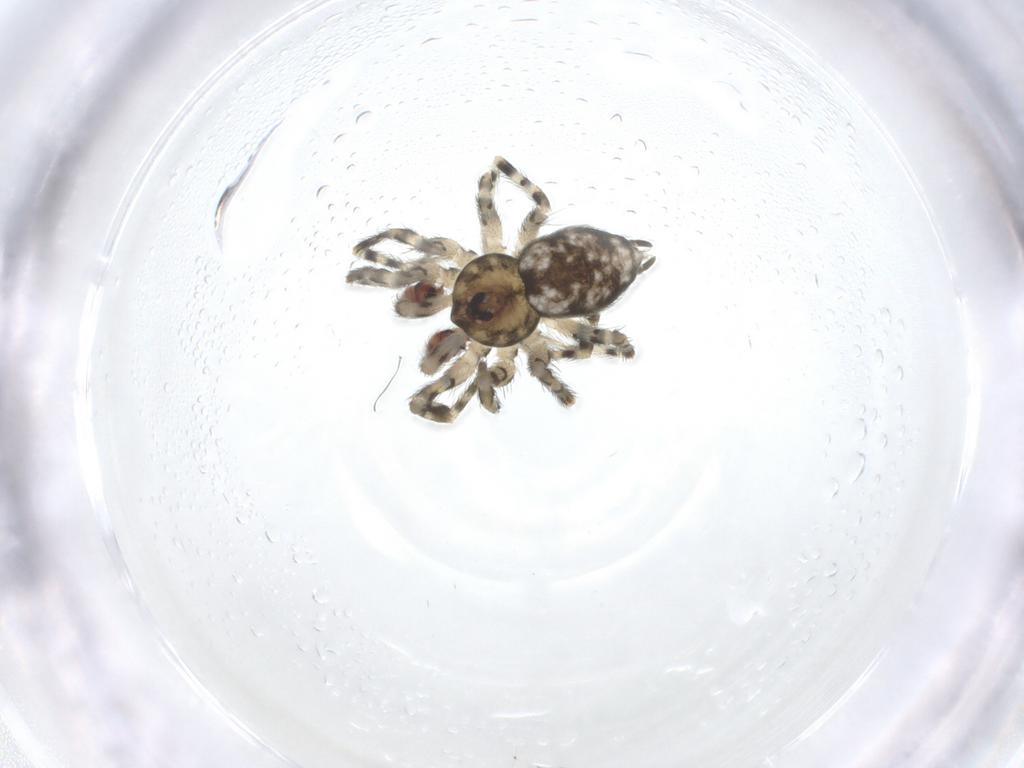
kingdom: Animalia
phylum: Arthropoda
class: Arachnida
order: Araneae
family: Oecobiidae
